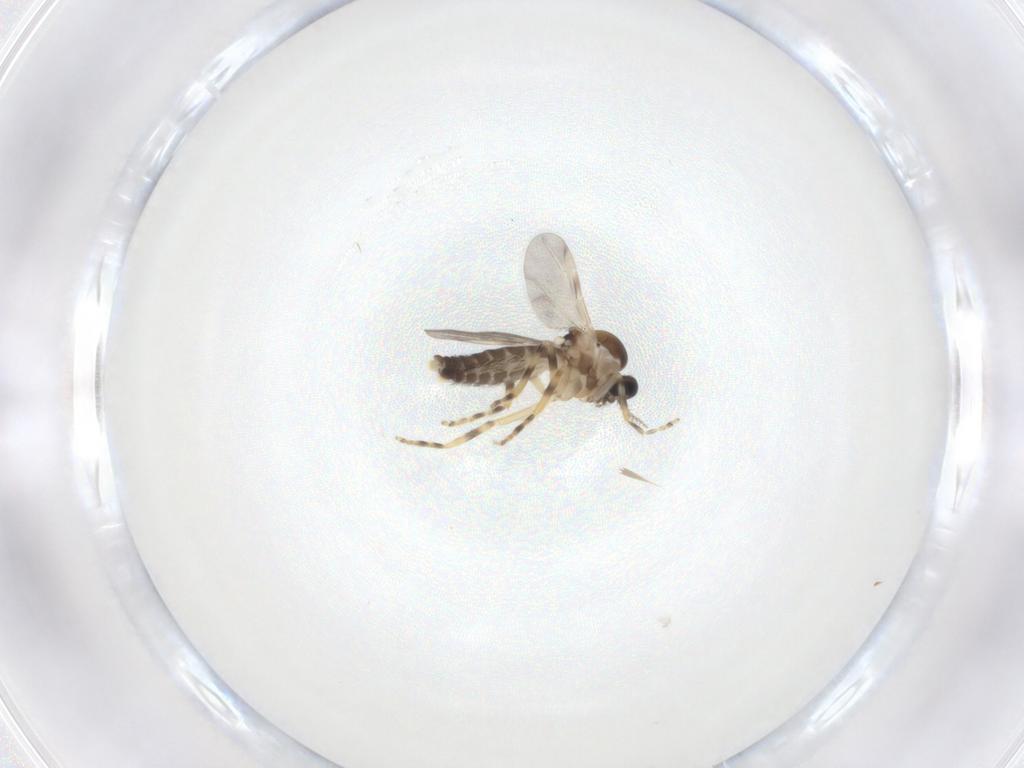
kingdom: Animalia
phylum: Arthropoda
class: Insecta
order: Diptera
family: Ceratopogonidae
